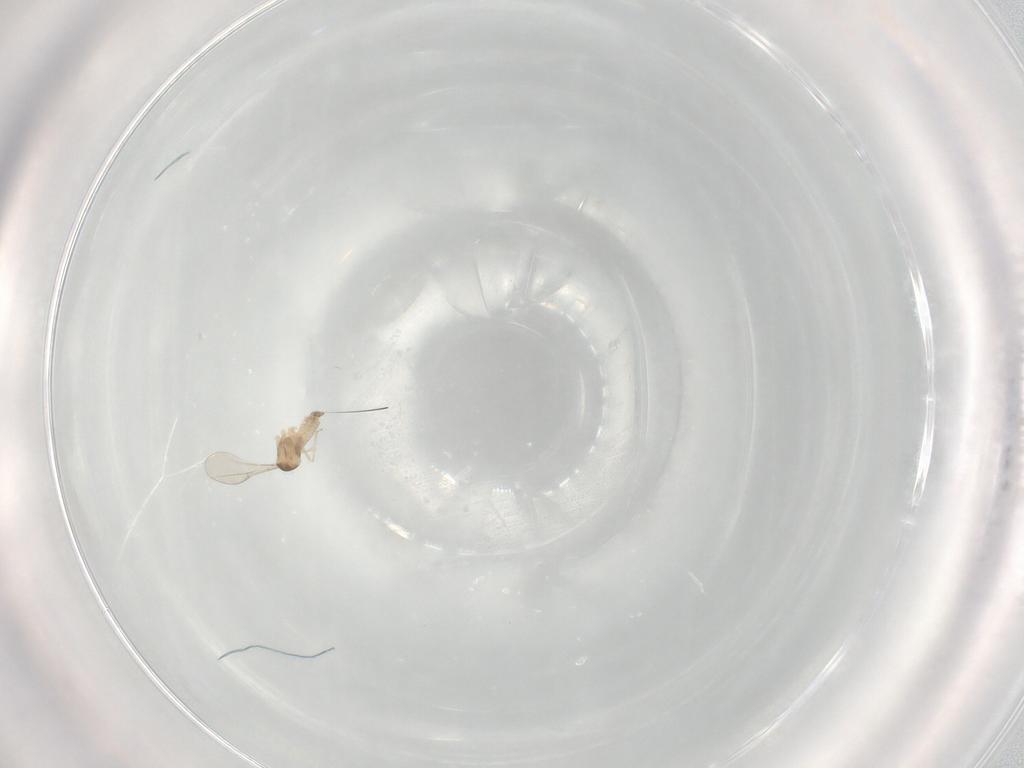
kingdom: Animalia
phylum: Arthropoda
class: Insecta
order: Diptera
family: Cecidomyiidae
